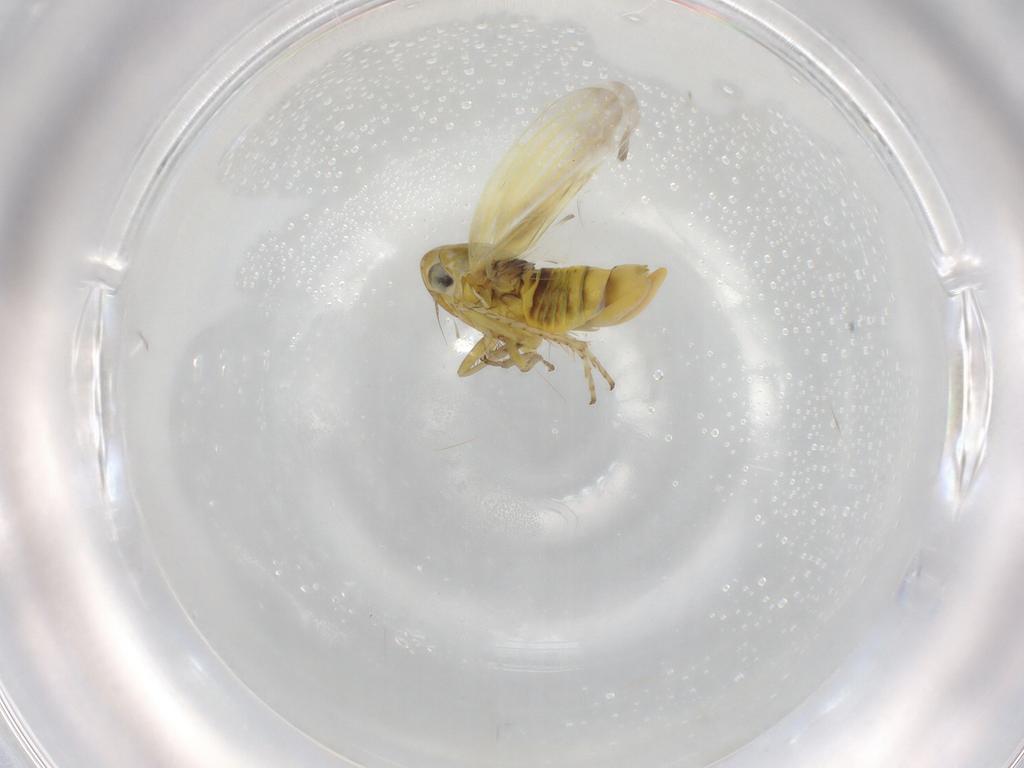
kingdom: Animalia
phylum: Arthropoda
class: Insecta
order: Hemiptera
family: Cicadellidae
